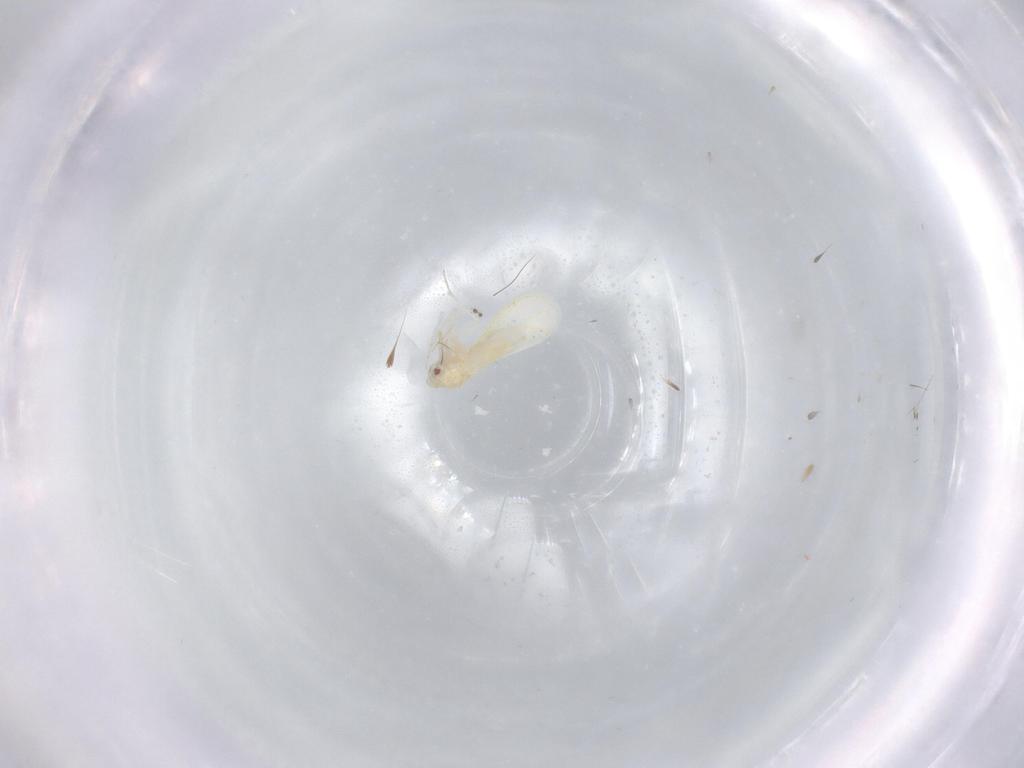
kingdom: Animalia
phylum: Arthropoda
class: Insecta
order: Hemiptera
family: Aleyrodidae
